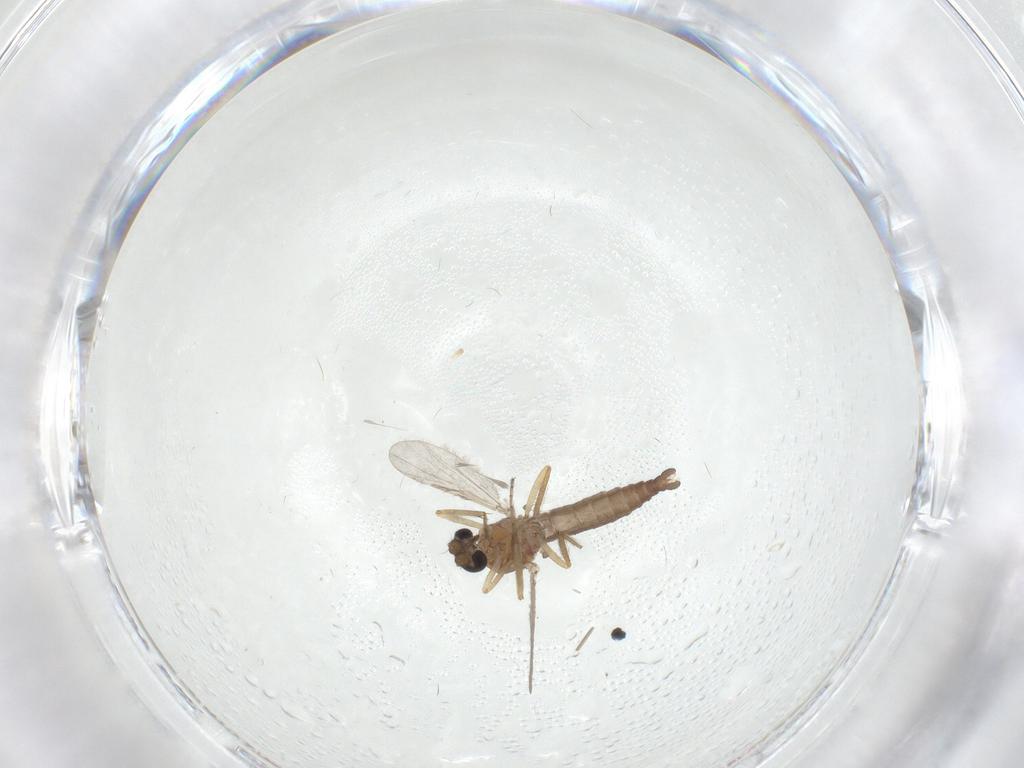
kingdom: Animalia
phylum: Arthropoda
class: Insecta
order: Diptera
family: Ceratopogonidae
